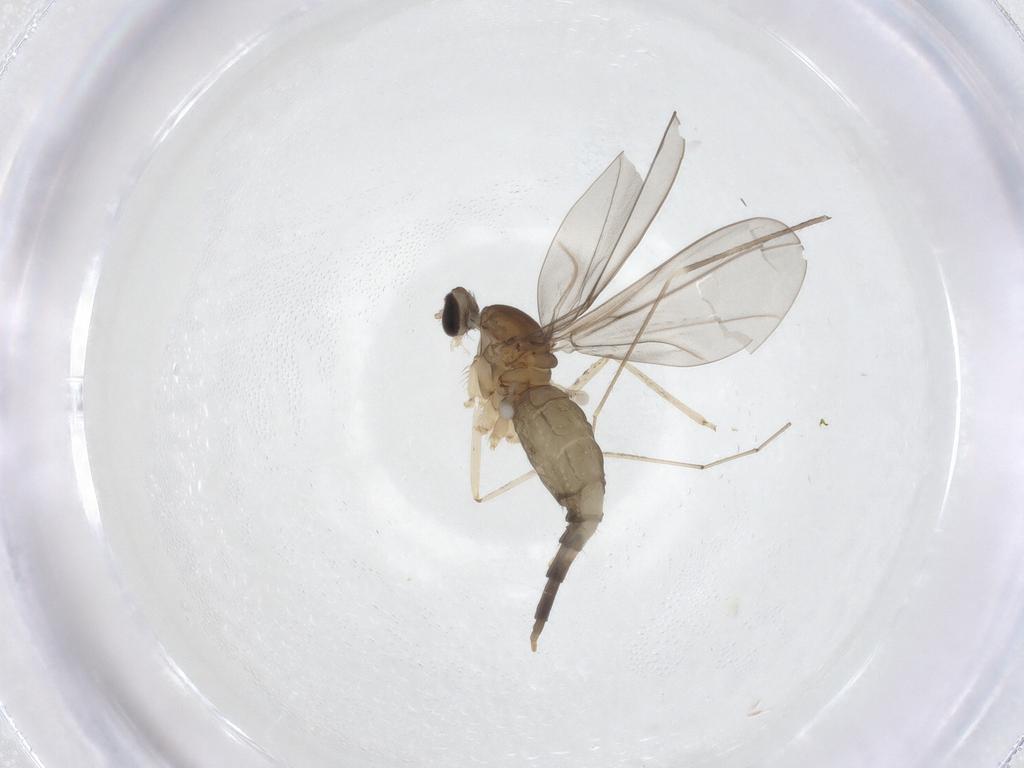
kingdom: Animalia
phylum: Arthropoda
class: Insecta
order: Diptera
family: Cecidomyiidae
